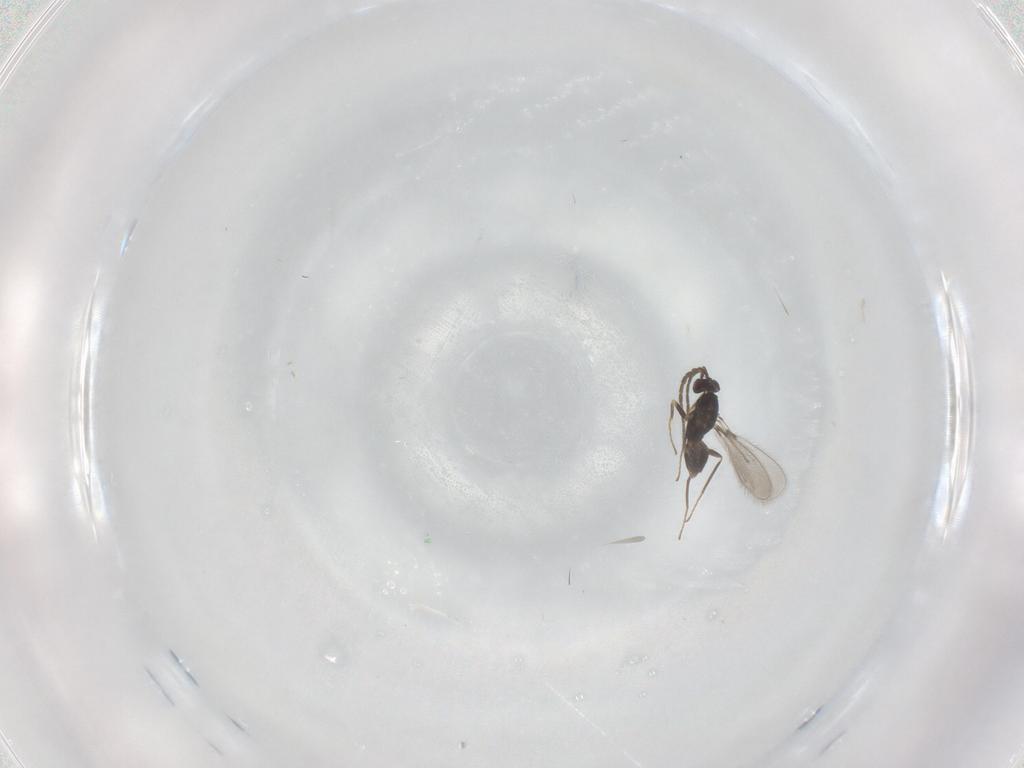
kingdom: Animalia
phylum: Arthropoda
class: Insecta
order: Hymenoptera
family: Mymaridae
